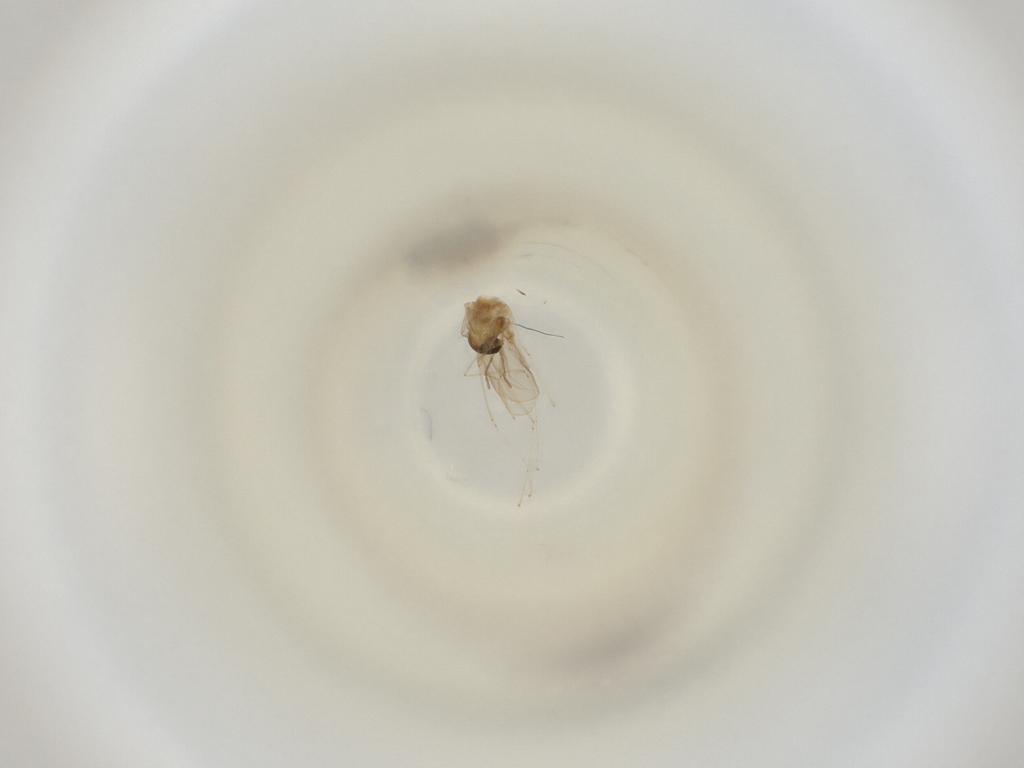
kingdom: Animalia
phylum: Arthropoda
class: Insecta
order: Diptera
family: Cecidomyiidae
